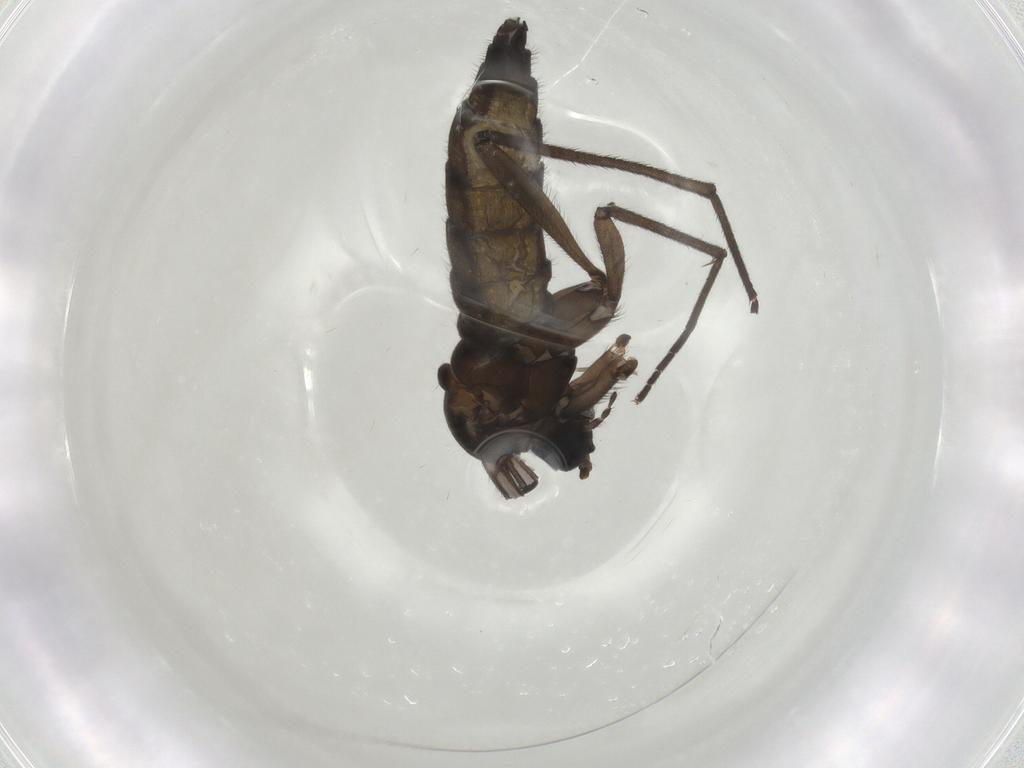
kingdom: Animalia
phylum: Arthropoda
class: Insecta
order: Diptera
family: Sciaridae
